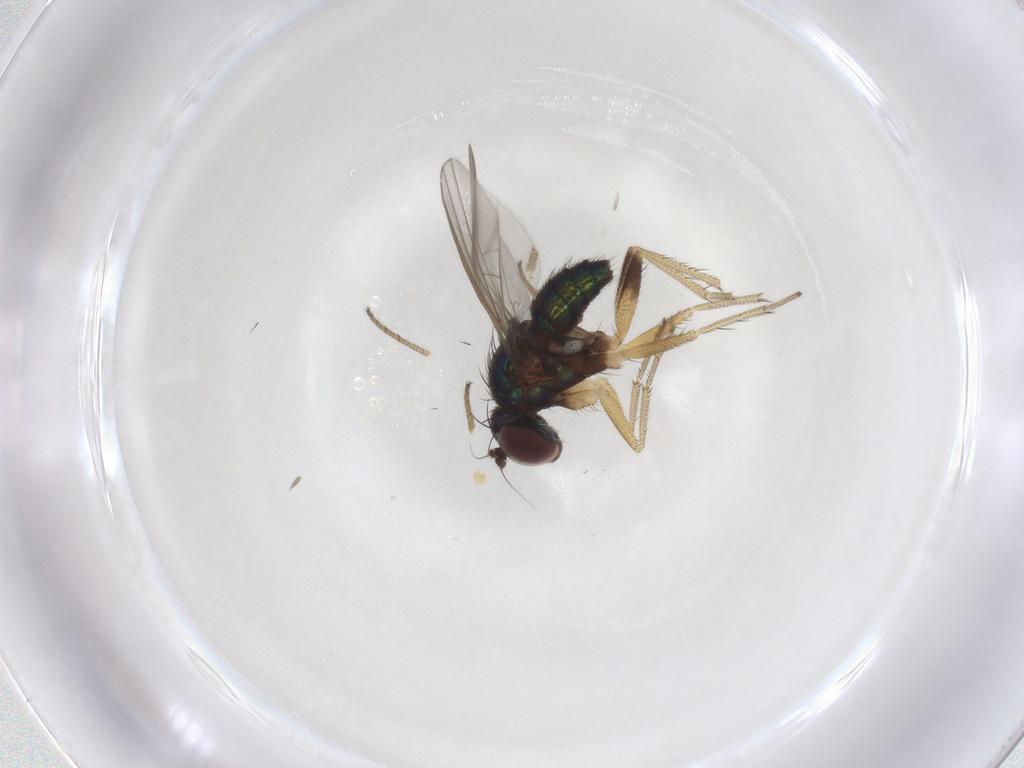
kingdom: Animalia
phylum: Arthropoda
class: Insecta
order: Diptera
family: Dolichopodidae
